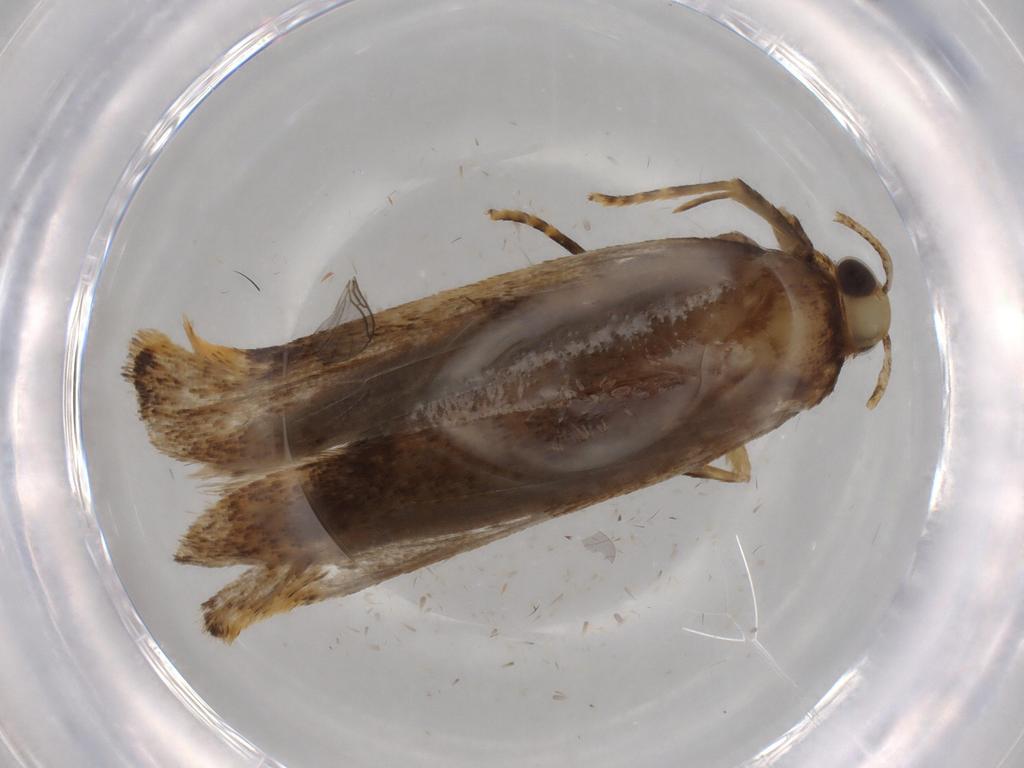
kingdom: Animalia
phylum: Arthropoda
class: Insecta
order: Lepidoptera
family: Autostichidae
